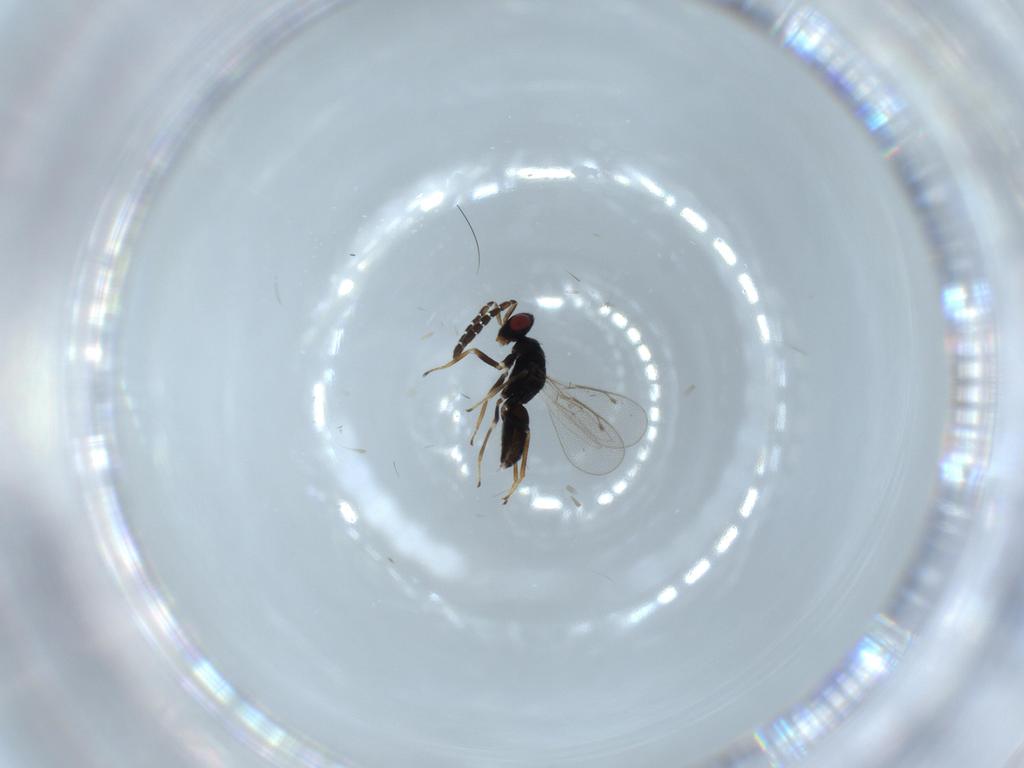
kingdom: Animalia
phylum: Arthropoda
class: Insecta
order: Hymenoptera
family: Eulophidae
